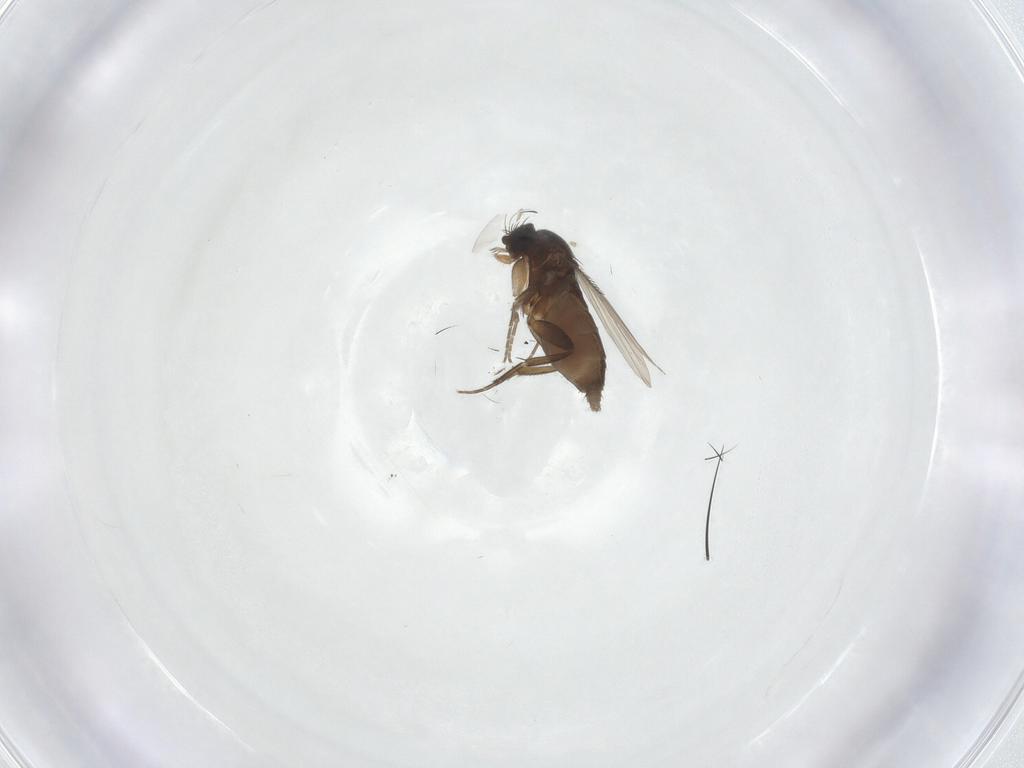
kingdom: Animalia
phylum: Arthropoda
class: Insecta
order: Diptera
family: Phoridae
